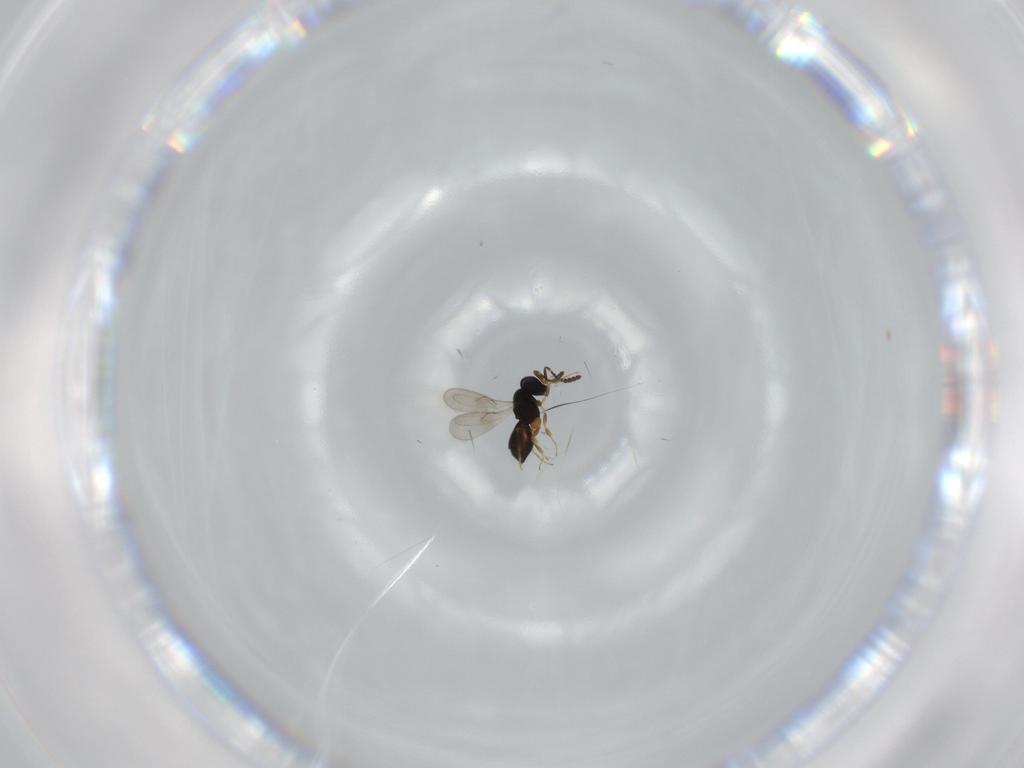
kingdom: Animalia
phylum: Arthropoda
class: Insecta
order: Hymenoptera
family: Scelionidae
